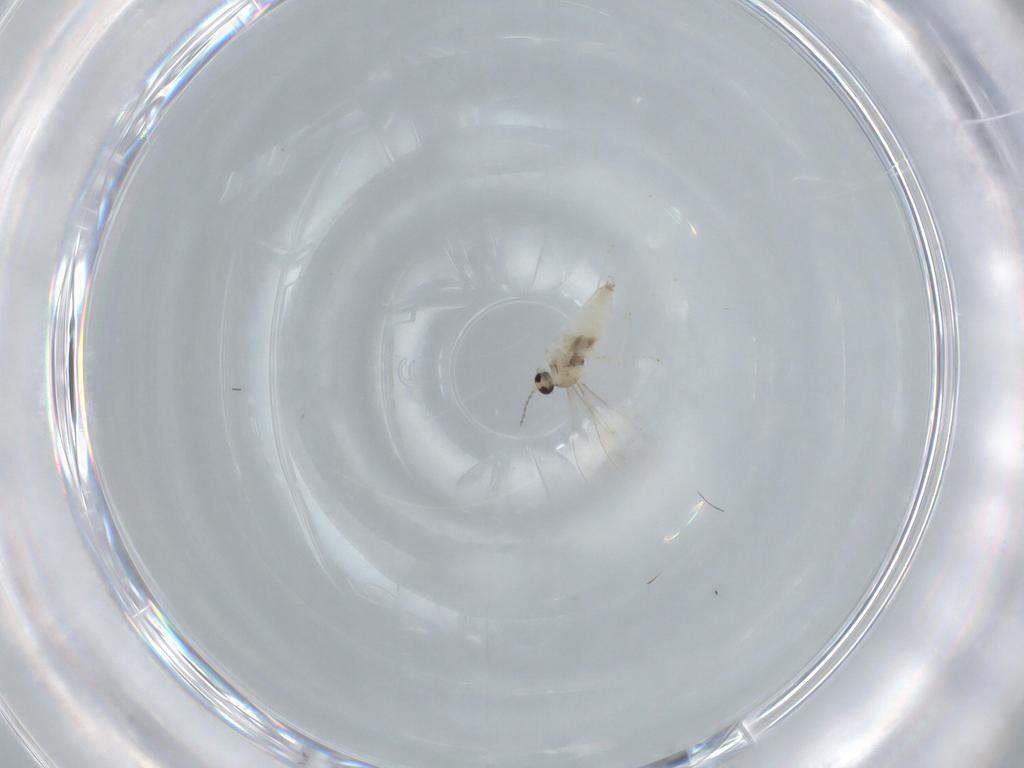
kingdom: Animalia
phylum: Arthropoda
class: Insecta
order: Diptera
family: Cecidomyiidae
